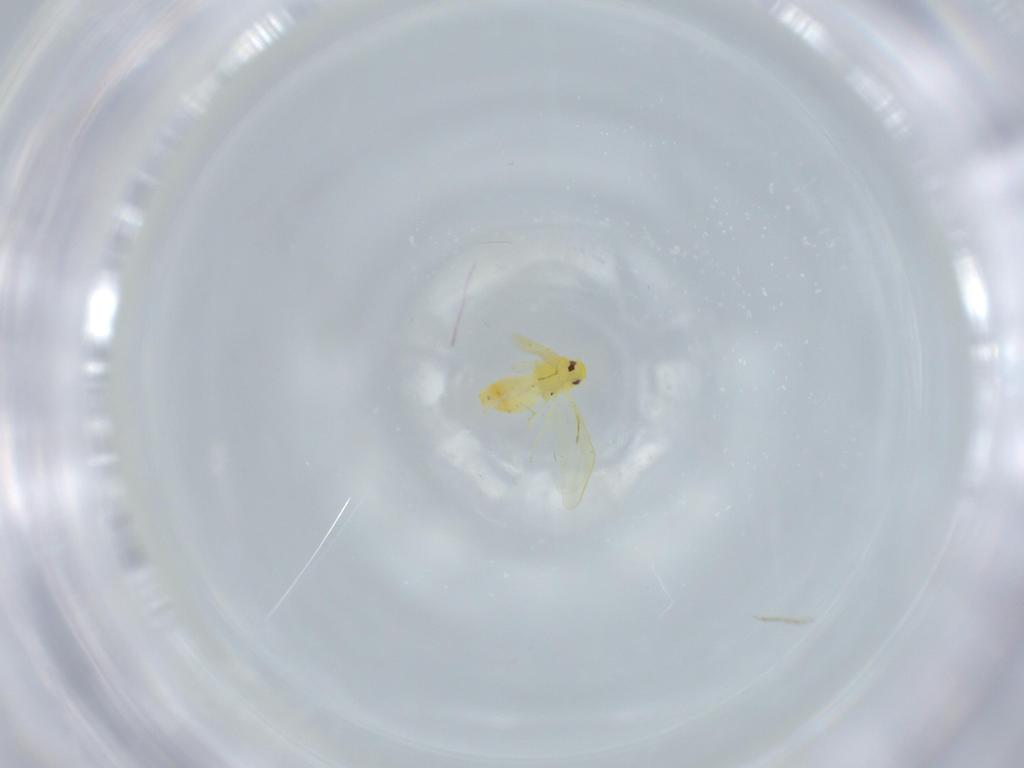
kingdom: Animalia
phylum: Arthropoda
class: Insecta
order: Hemiptera
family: Aleyrodidae
